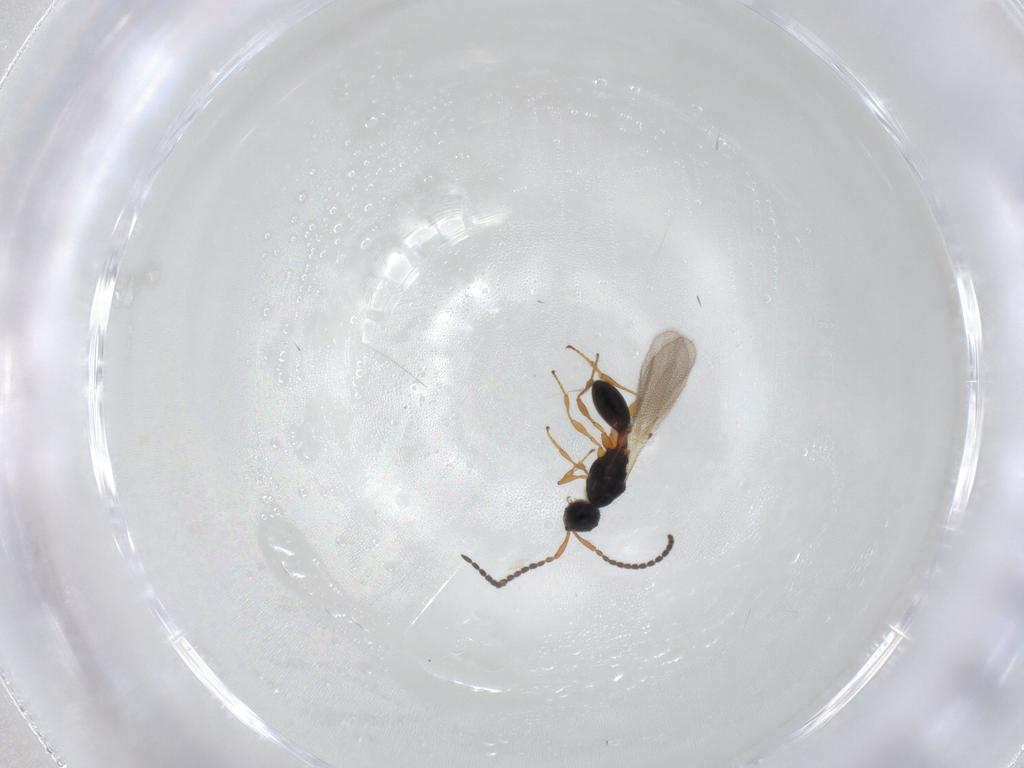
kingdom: Animalia
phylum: Arthropoda
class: Insecta
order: Hymenoptera
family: Diapriidae
